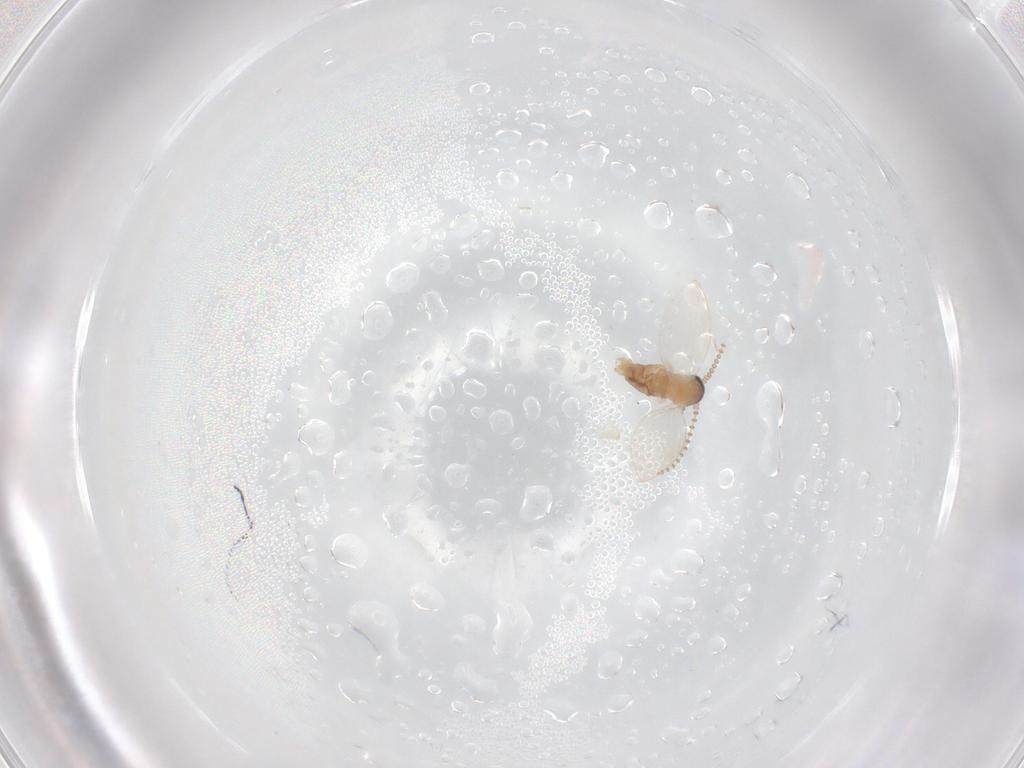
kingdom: Animalia
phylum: Arthropoda
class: Insecta
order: Diptera
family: Psychodidae
